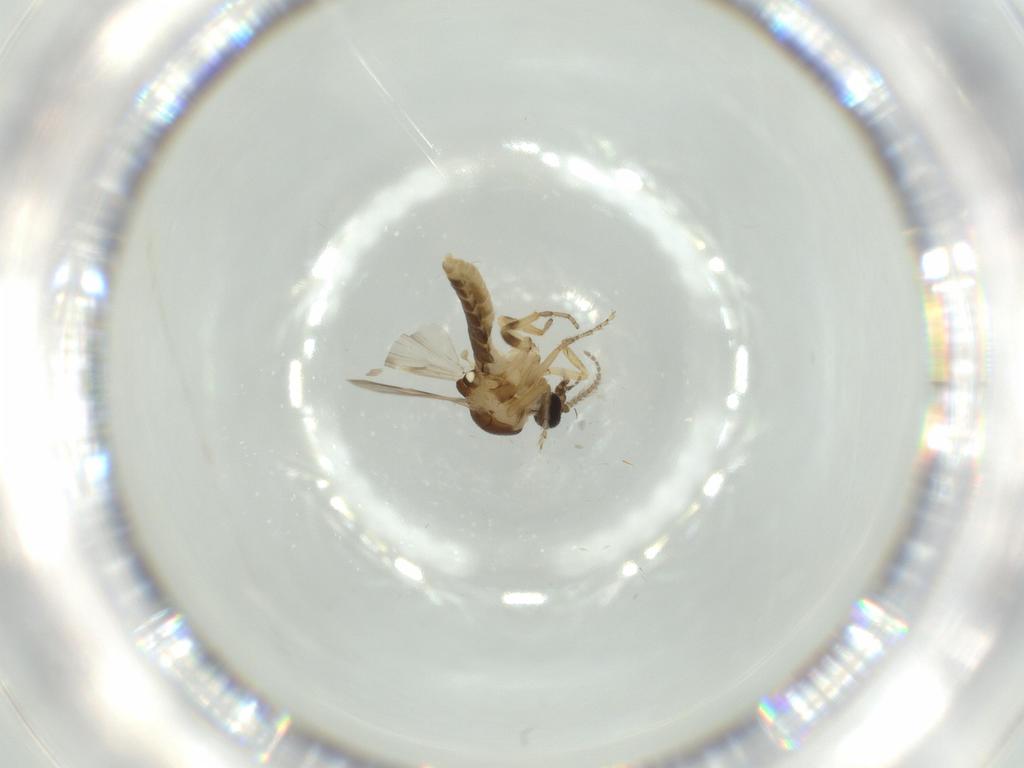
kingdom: Animalia
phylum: Arthropoda
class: Insecta
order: Diptera
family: Ceratopogonidae
